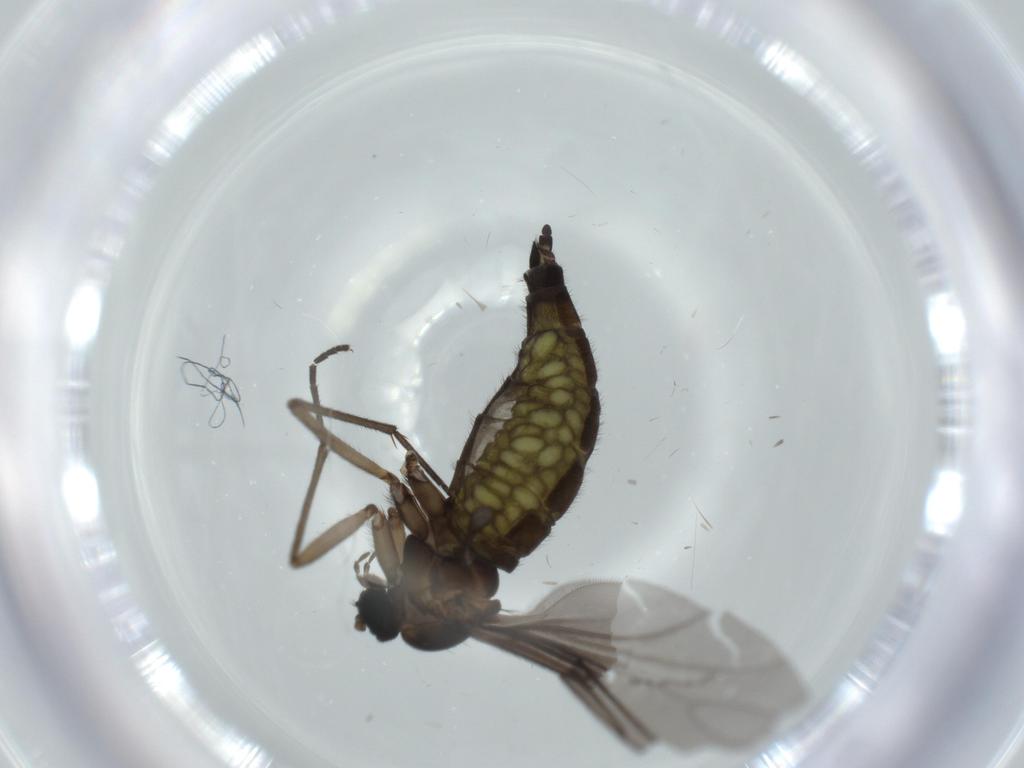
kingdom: Animalia
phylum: Arthropoda
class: Insecta
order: Diptera
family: Sciaridae
